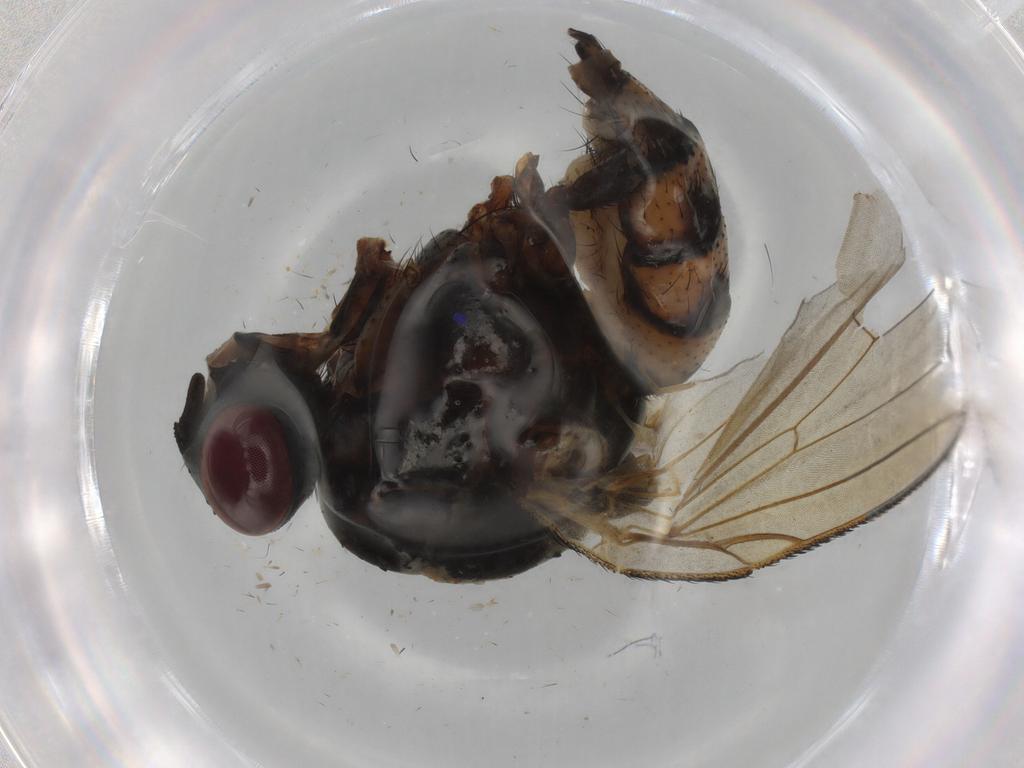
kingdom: Animalia
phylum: Arthropoda
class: Insecta
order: Diptera
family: Anthomyiidae
